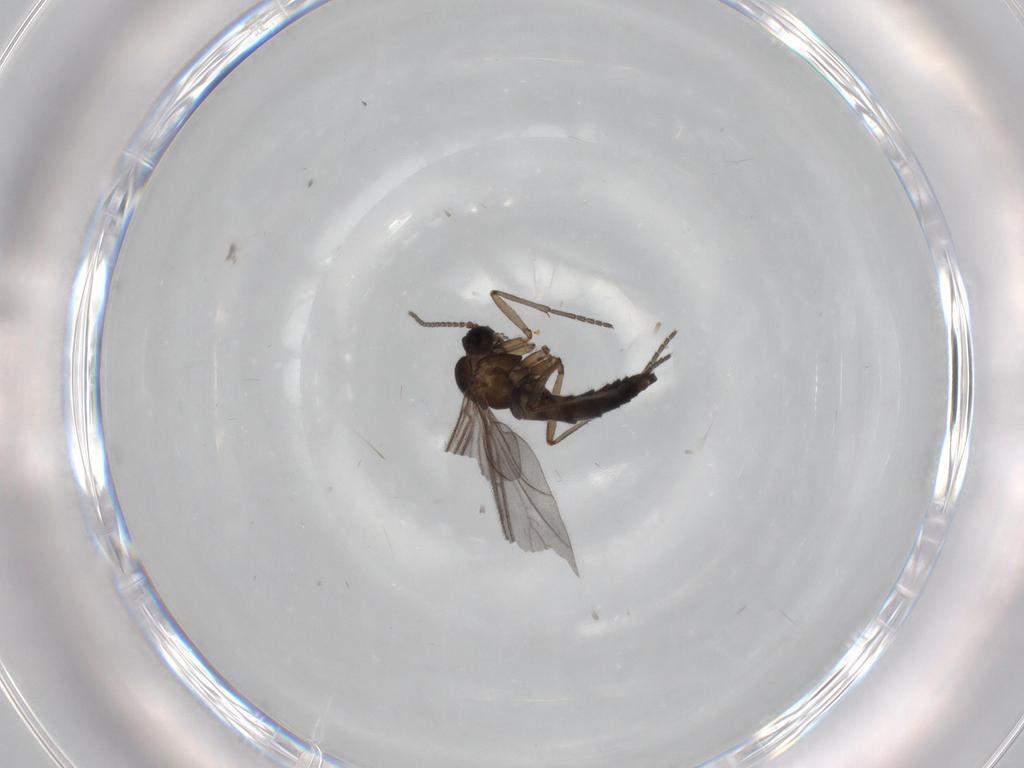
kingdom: Animalia
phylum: Arthropoda
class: Insecta
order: Diptera
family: Sciaridae
